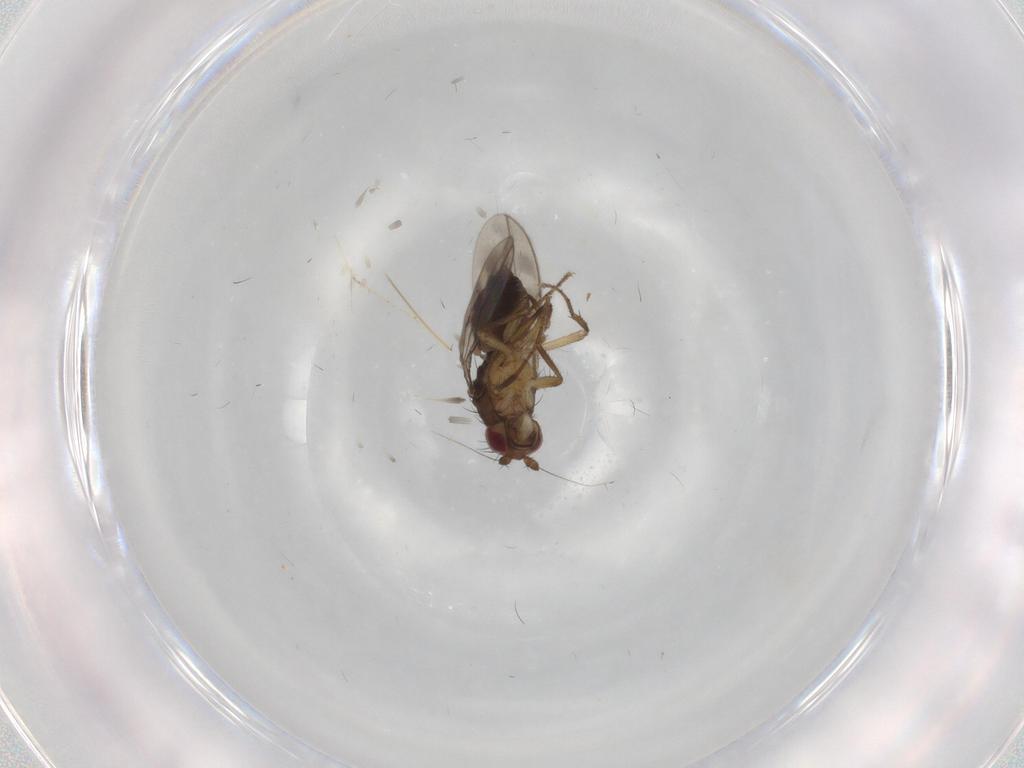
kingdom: Animalia
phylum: Arthropoda
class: Insecta
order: Diptera
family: Sphaeroceridae
